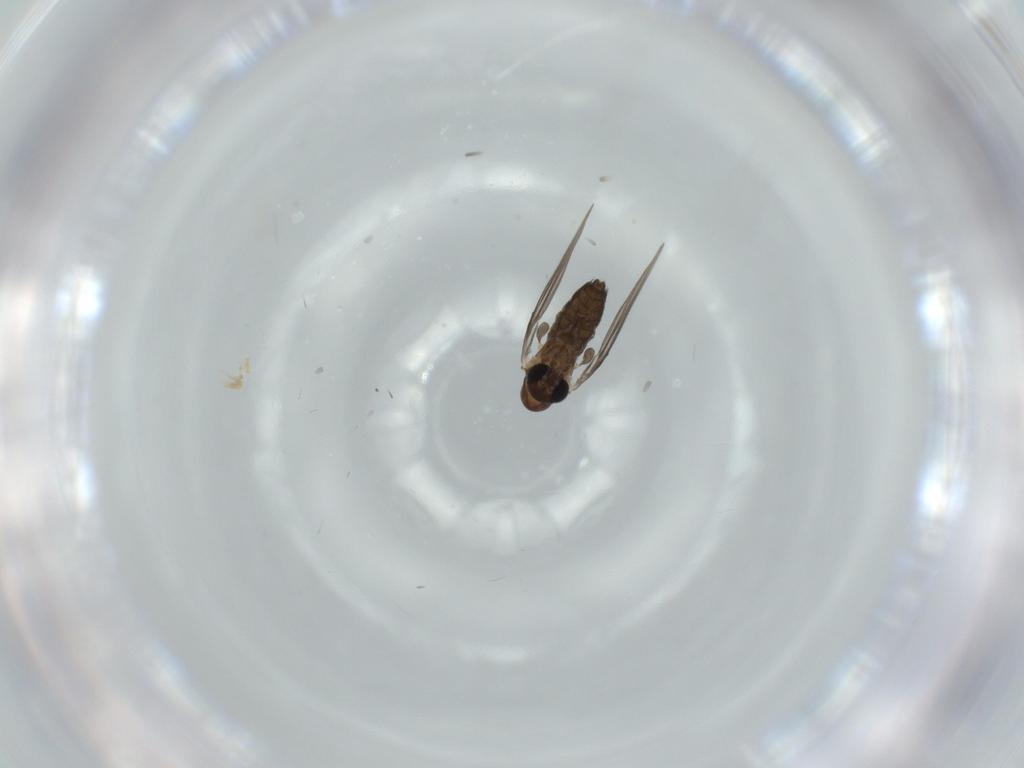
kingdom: Animalia
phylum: Arthropoda
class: Insecta
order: Diptera
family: Psychodidae
